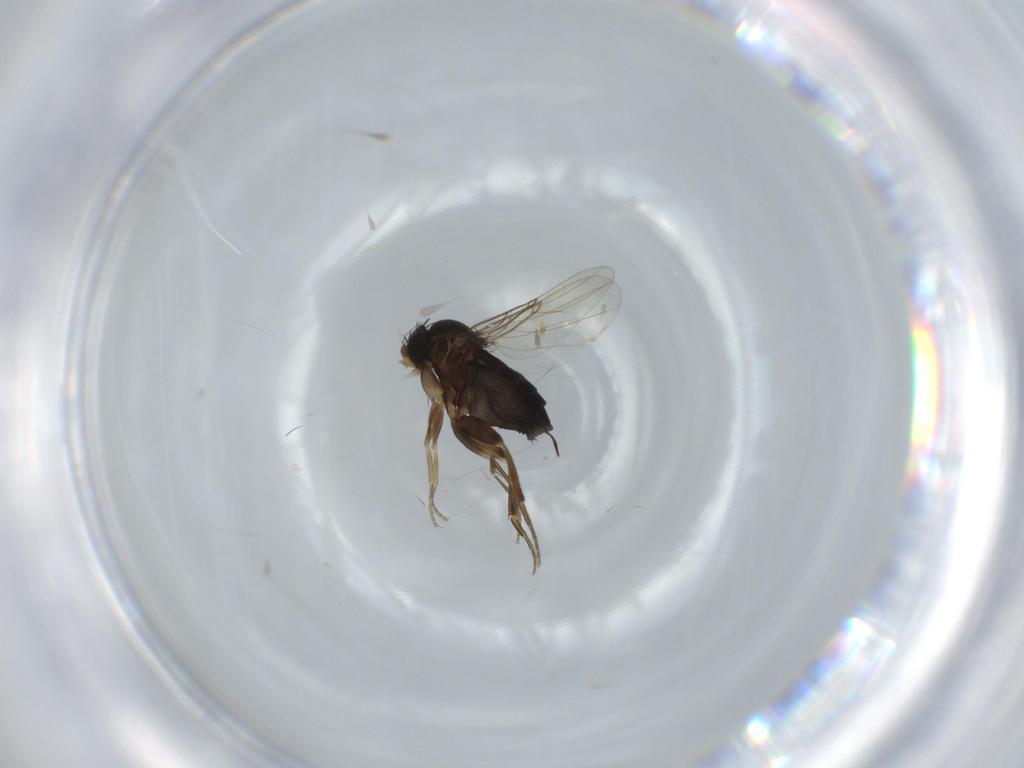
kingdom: Animalia
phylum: Arthropoda
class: Insecta
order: Diptera
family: Phoridae
